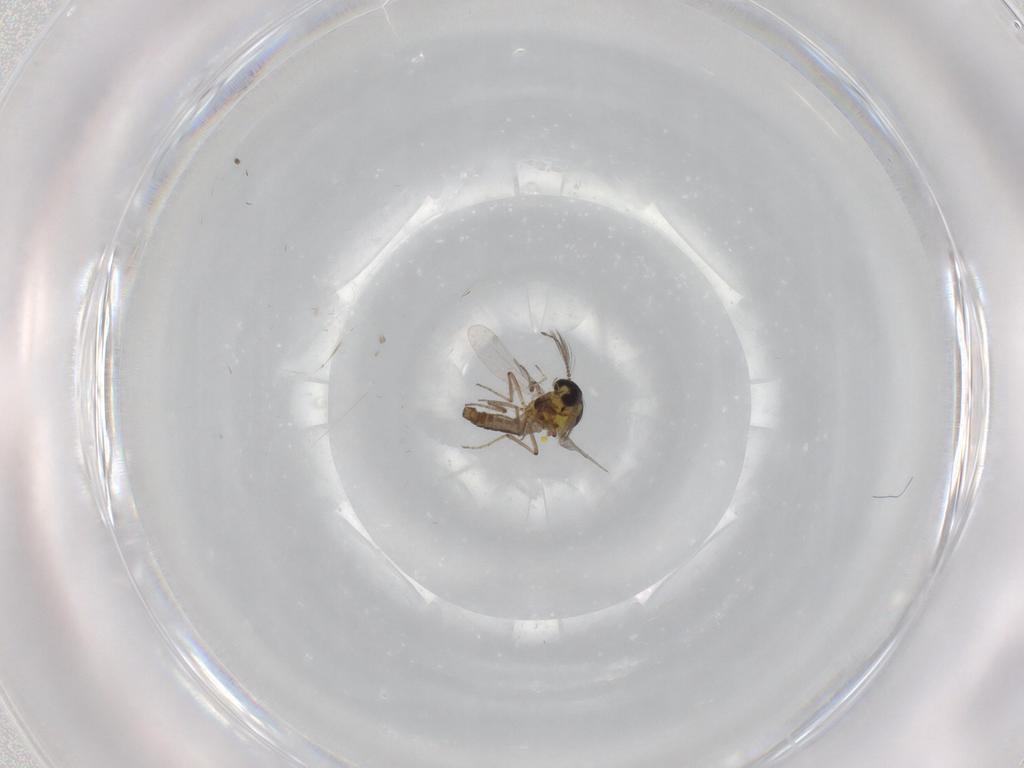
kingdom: Animalia
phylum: Arthropoda
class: Insecta
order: Diptera
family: Ceratopogonidae
